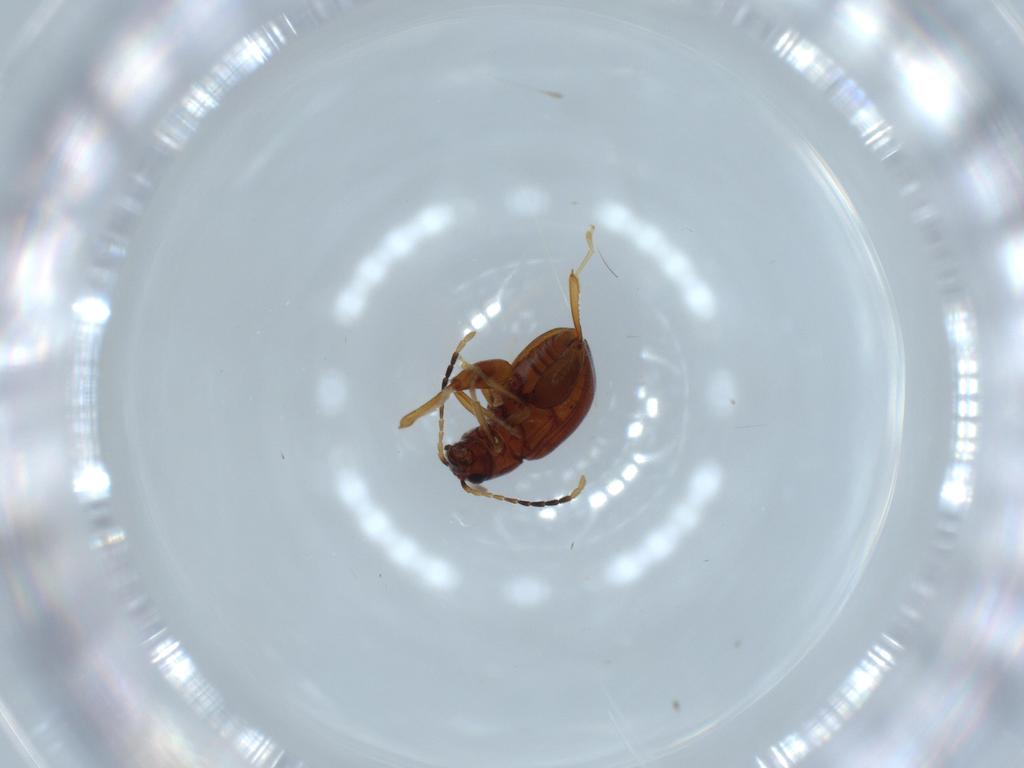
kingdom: Animalia
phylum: Arthropoda
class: Insecta
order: Coleoptera
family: Chrysomelidae
